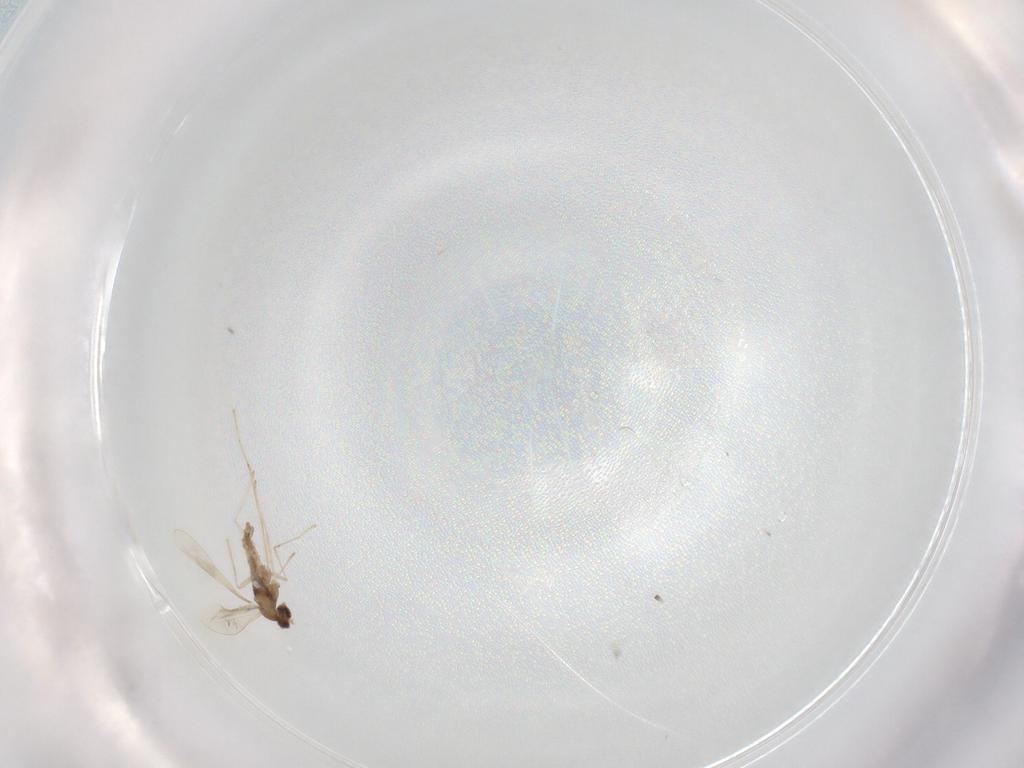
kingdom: Animalia
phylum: Arthropoda
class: Insecta
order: Diptera
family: Cecidomyiidae
